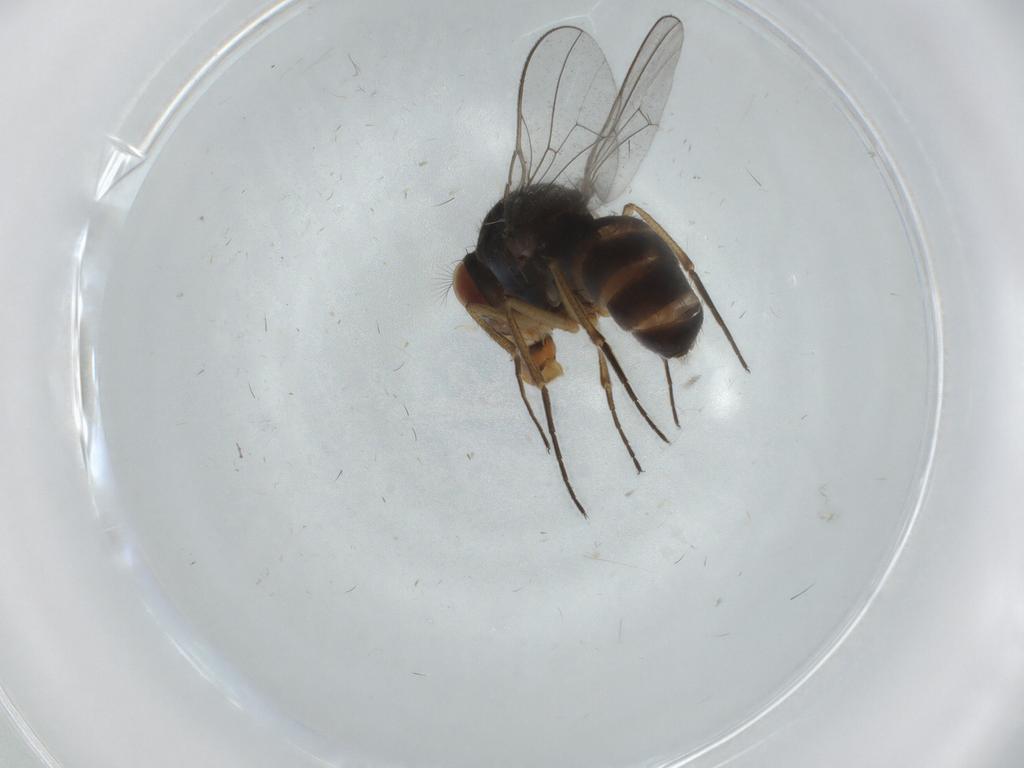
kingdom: Animalia
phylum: Arthropoda
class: Insecta
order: Diptera
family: Chironomidae
